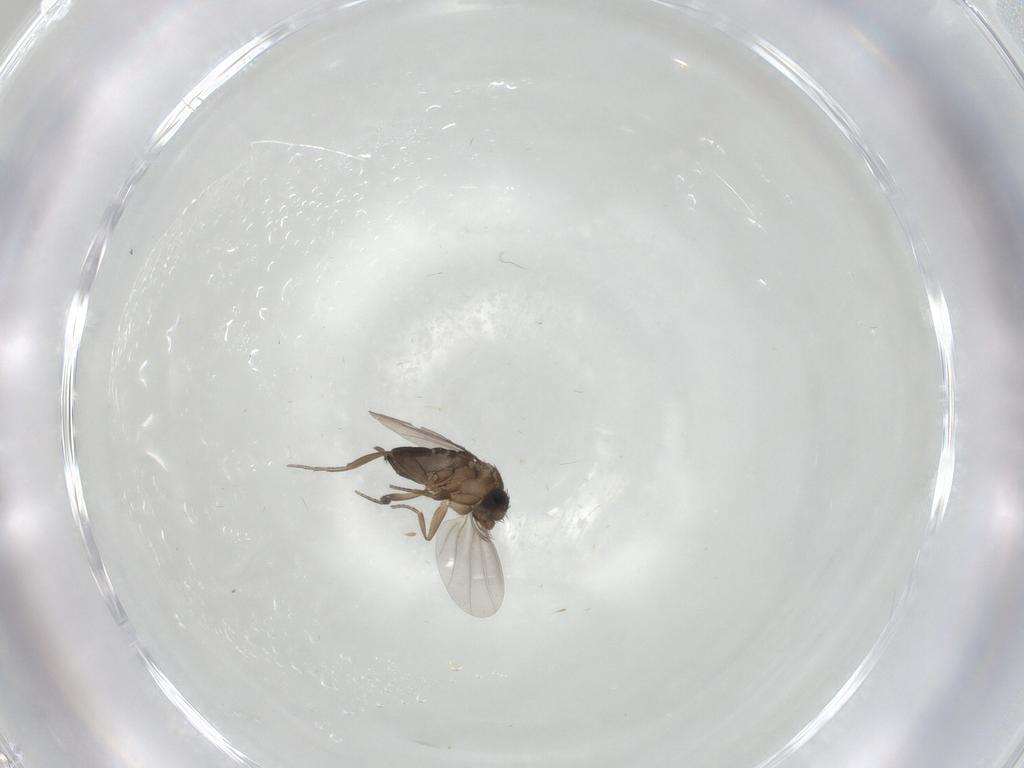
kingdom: Animalia
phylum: Arthropoda
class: Insecta
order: Diptera
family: Phoridae
